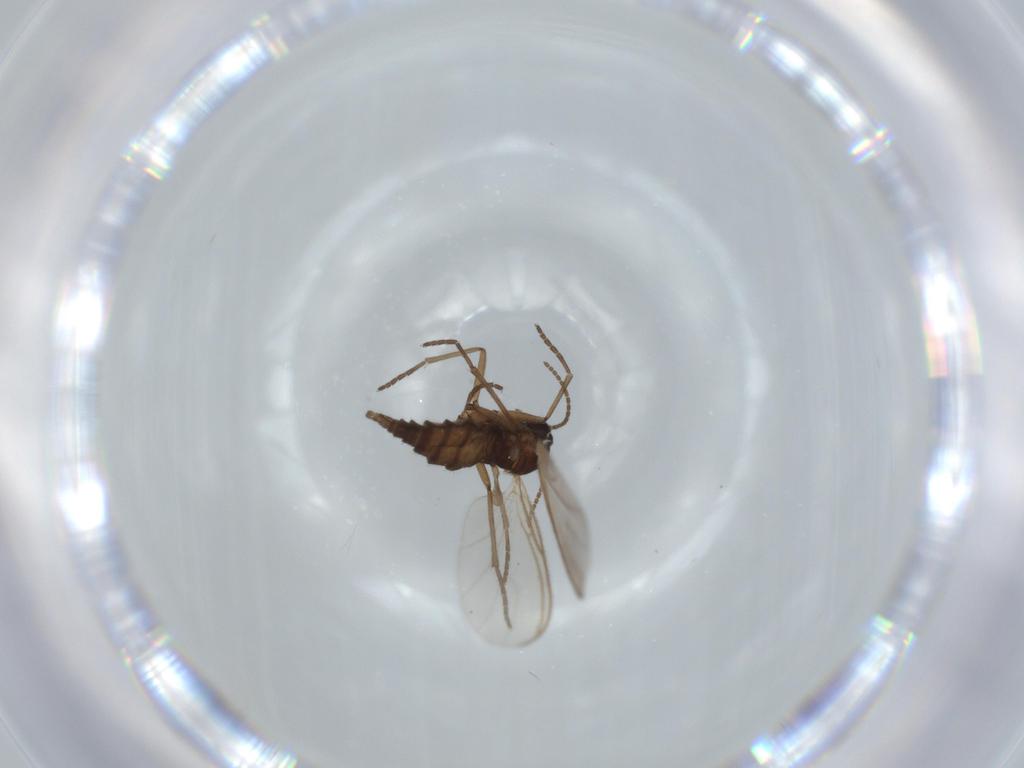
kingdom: Animalia
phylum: Arthropoda
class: Insecta
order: Diptera
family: Sciaridae
